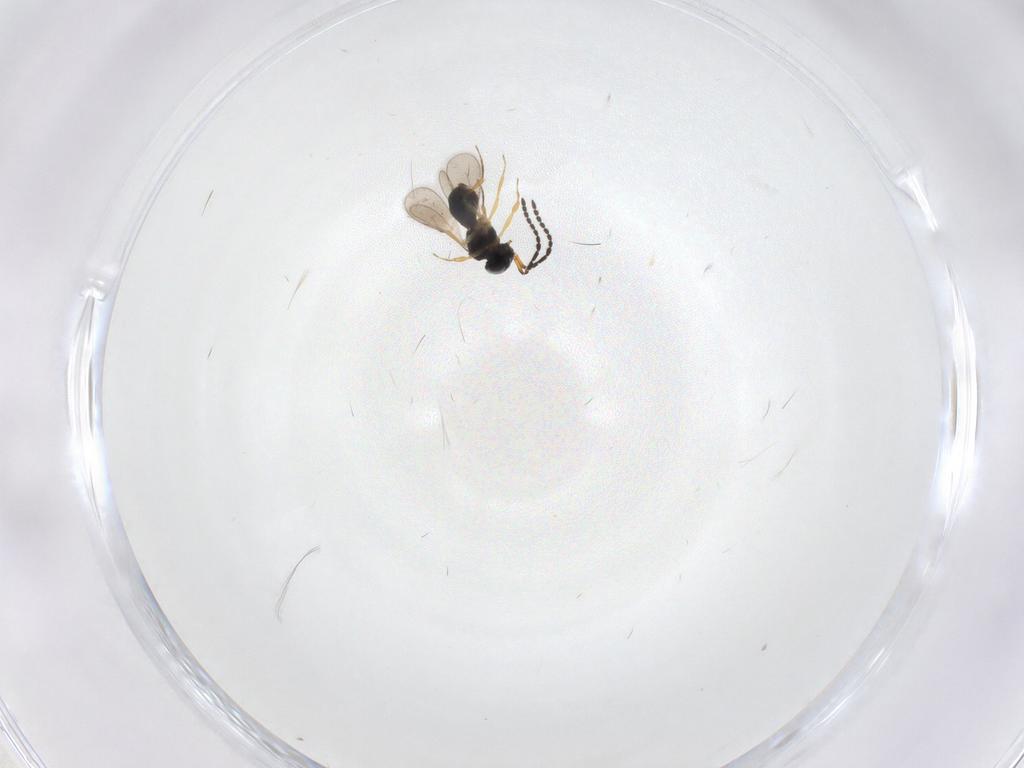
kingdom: Animalia
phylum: Arthropoda
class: Insecta
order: Hymenoptera
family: Scelionidae
